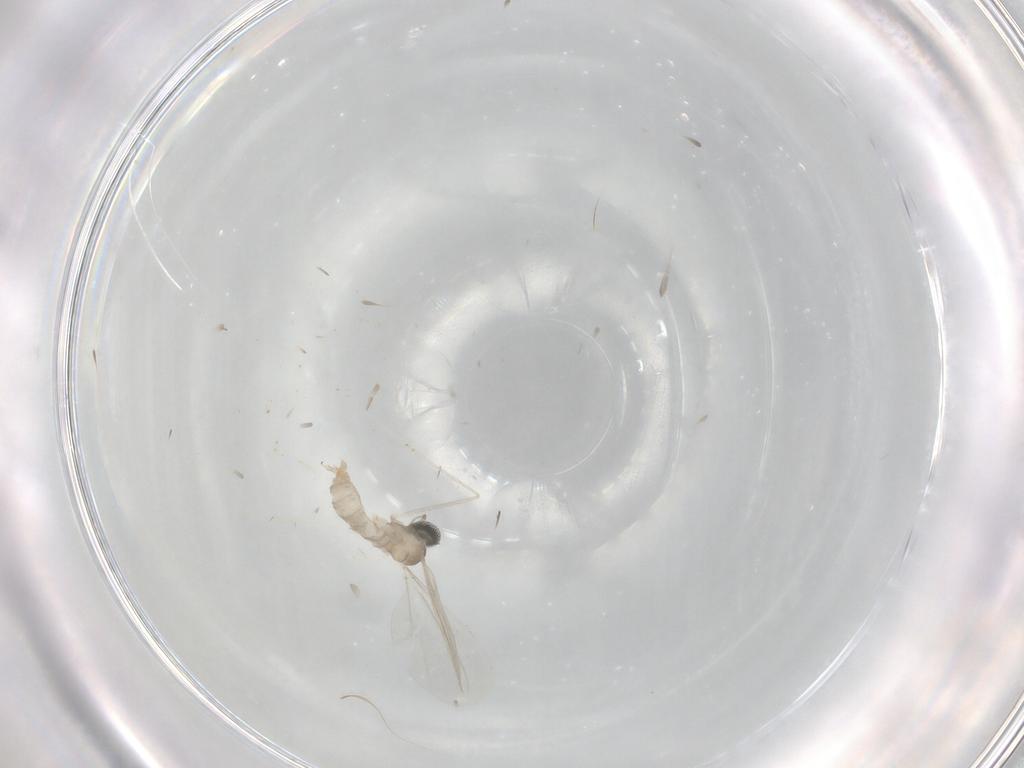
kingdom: Animalia
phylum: Arthropoda
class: Insecta
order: Diptera
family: Cecidomyiidae
